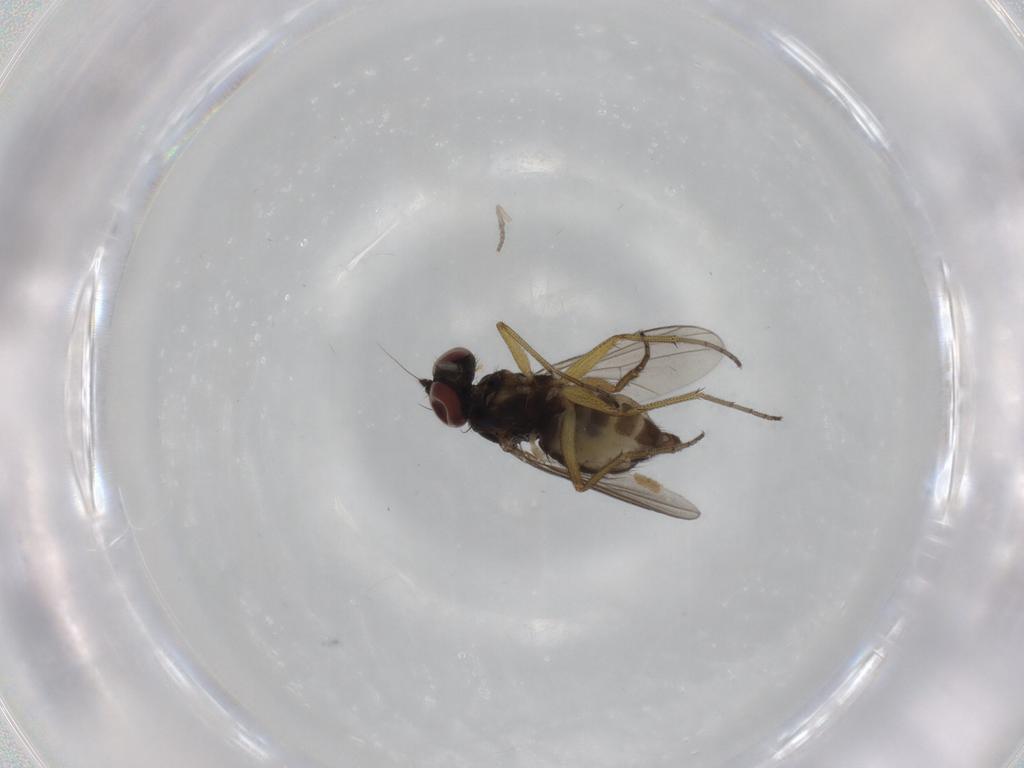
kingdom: Animalia
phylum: Arthropoda
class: Insecta
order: Diptera
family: Dolichopodidae
